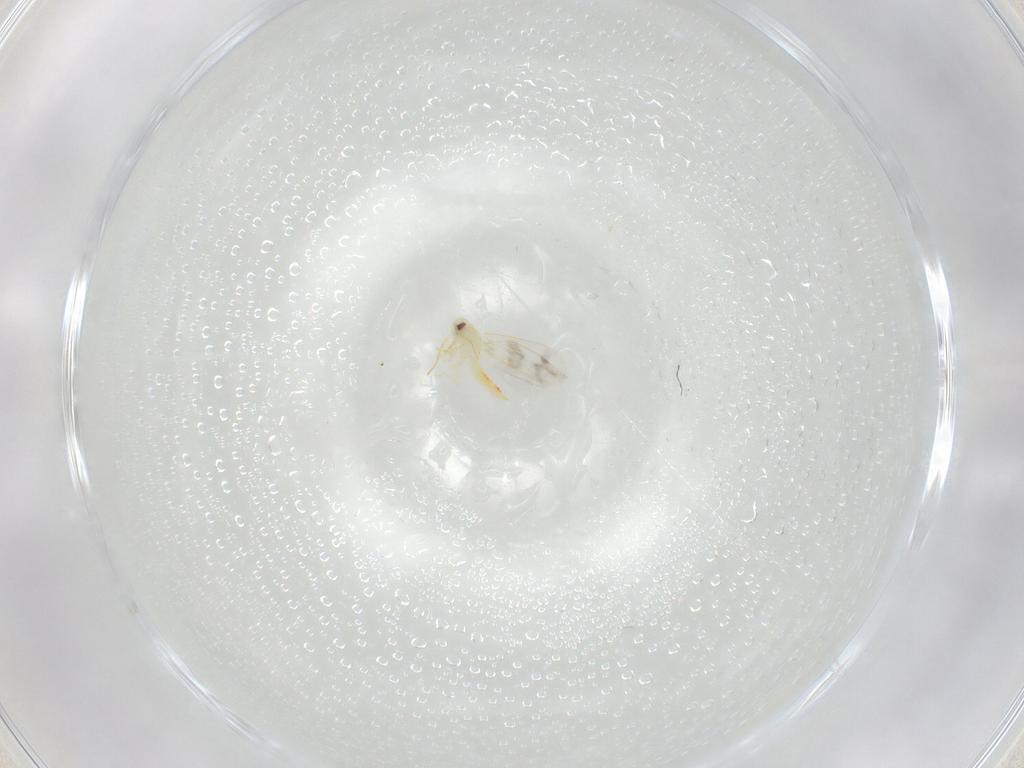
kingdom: Animalia
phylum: Arthropoda
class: Insecta
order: Hemiptera
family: Aleyrodidae
